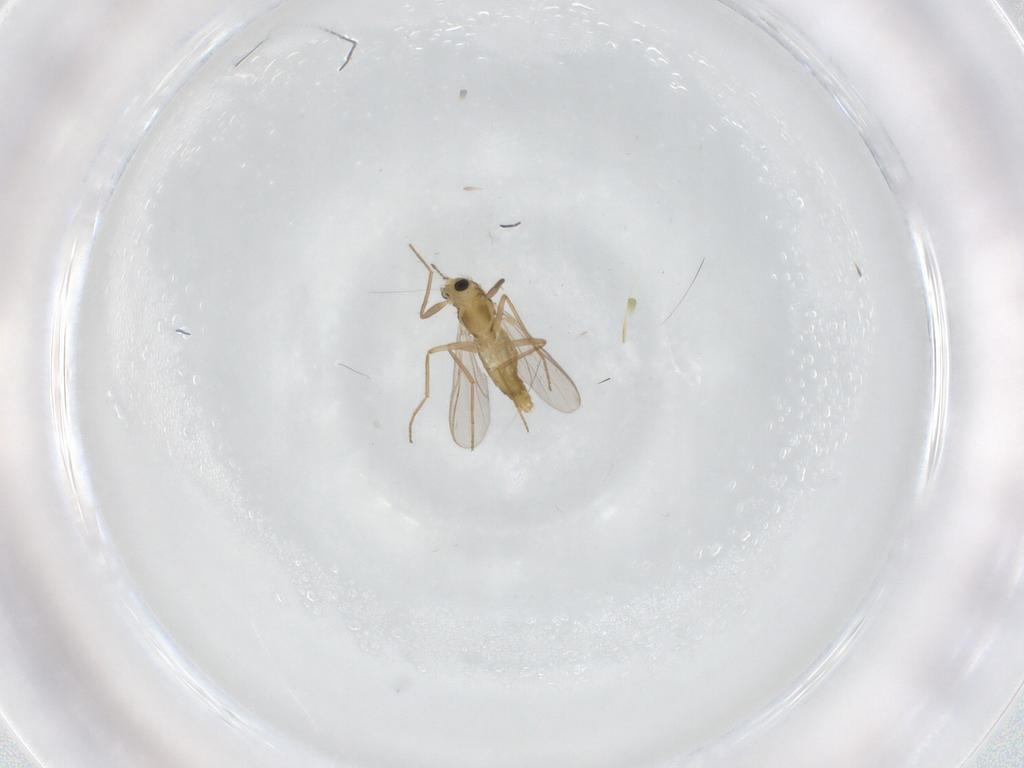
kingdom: Animalia
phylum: Arthropoda
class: Insecta
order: Diptera
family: Chironomidae
